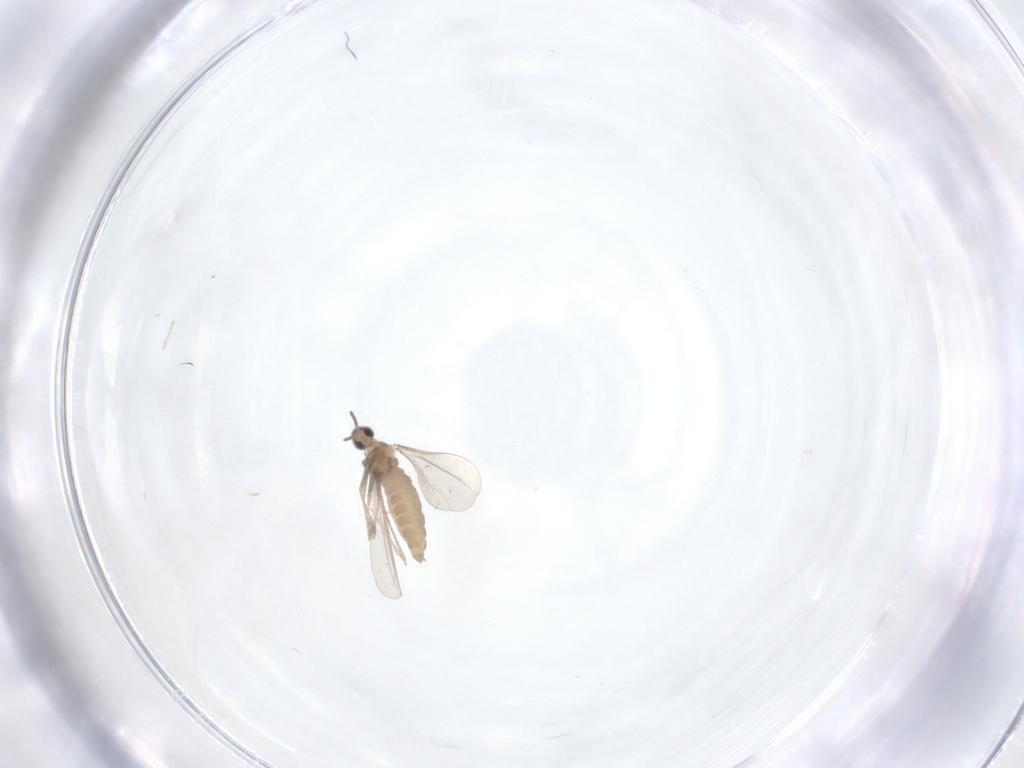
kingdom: Animalia
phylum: Arthropoda
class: Insecta
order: Diptera
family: Cecidomyiidae
